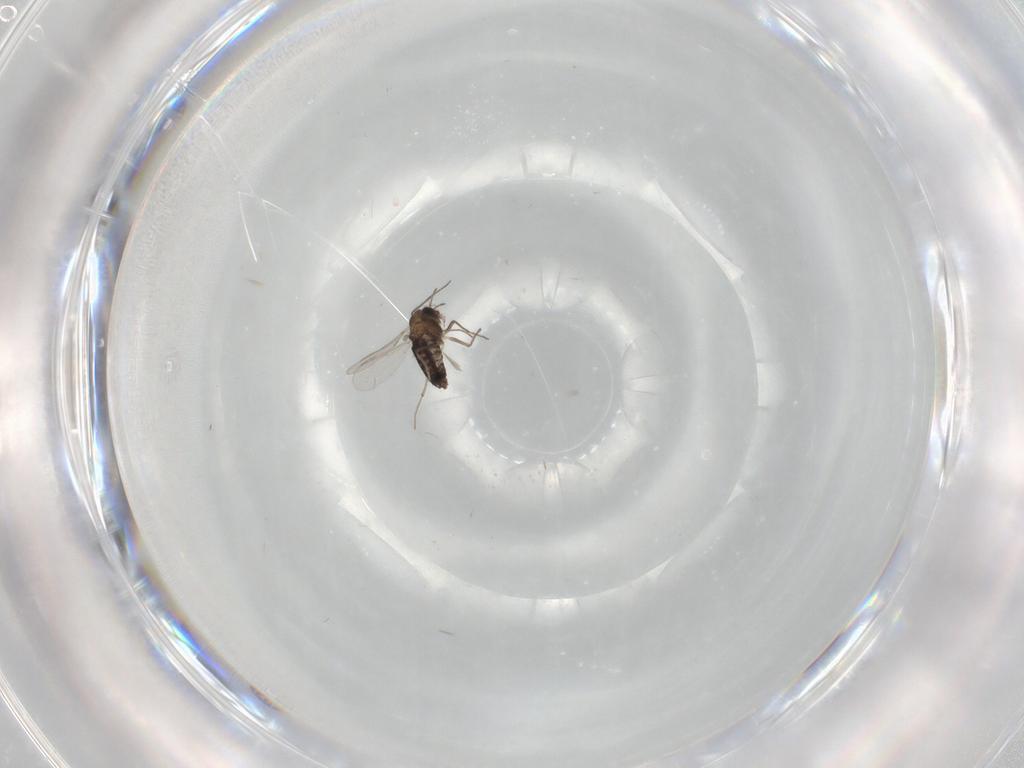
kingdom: Animalia
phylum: Arthropoda
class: Insecta
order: Diptera
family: Chironomidae
